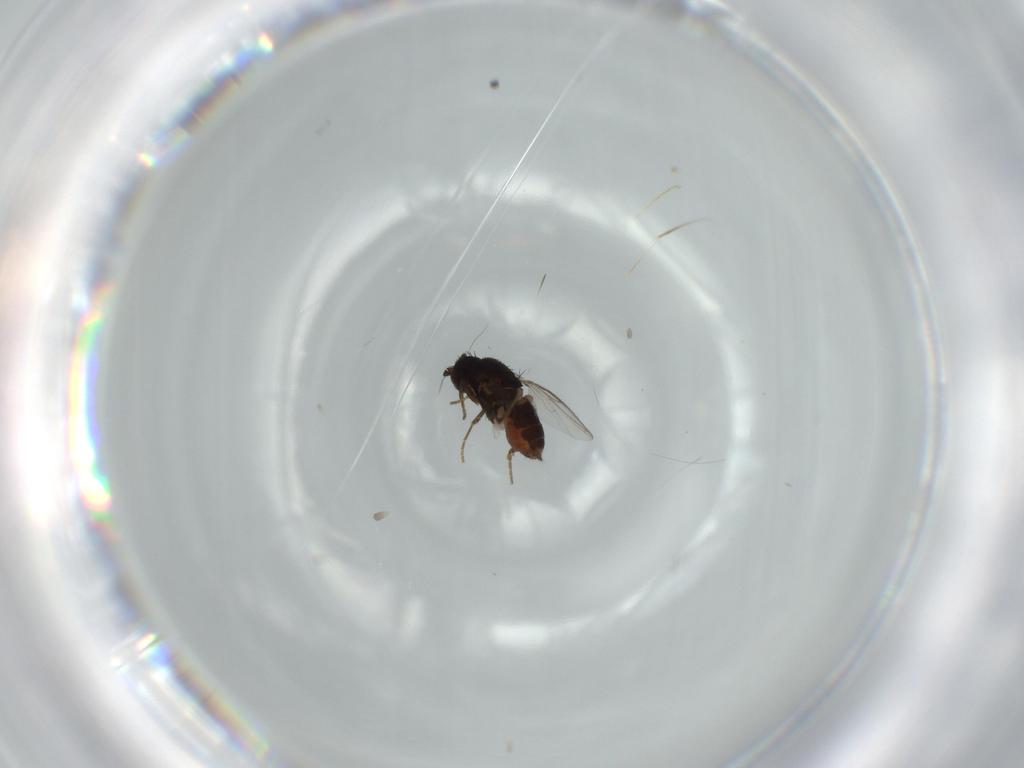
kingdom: Animalia
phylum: Arthropoda
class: Insecta
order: Diptera
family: Sphaeroceridae
